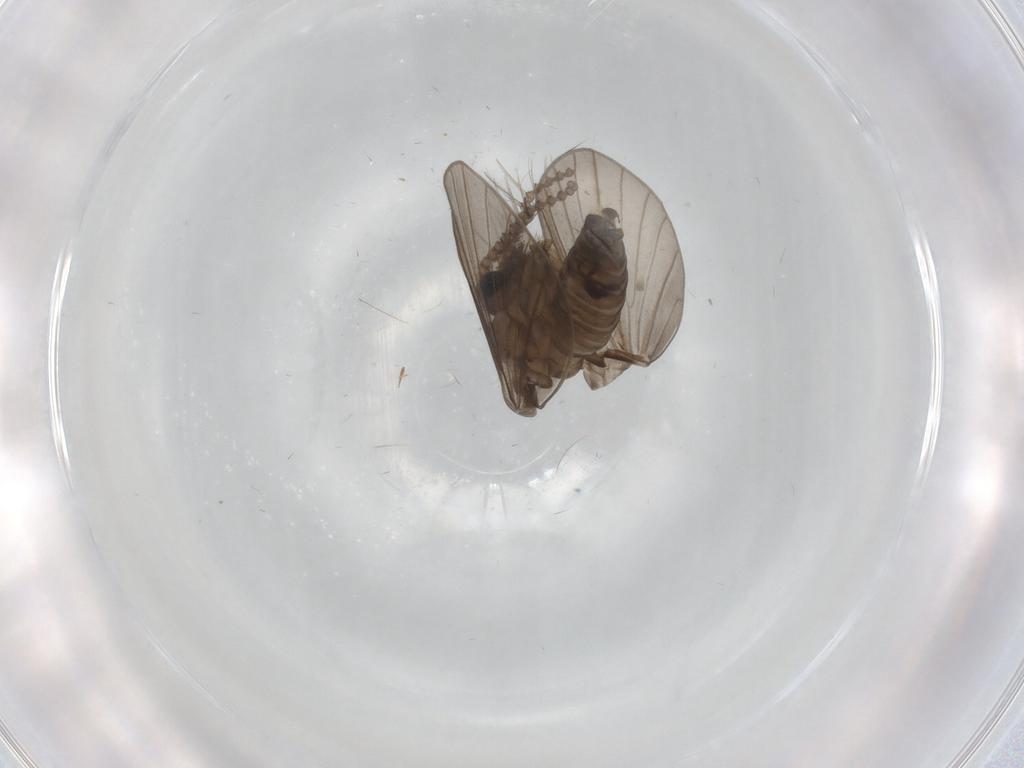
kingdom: Animalia
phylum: Arthropoda
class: Insecta
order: Diptera
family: Psychodidae
